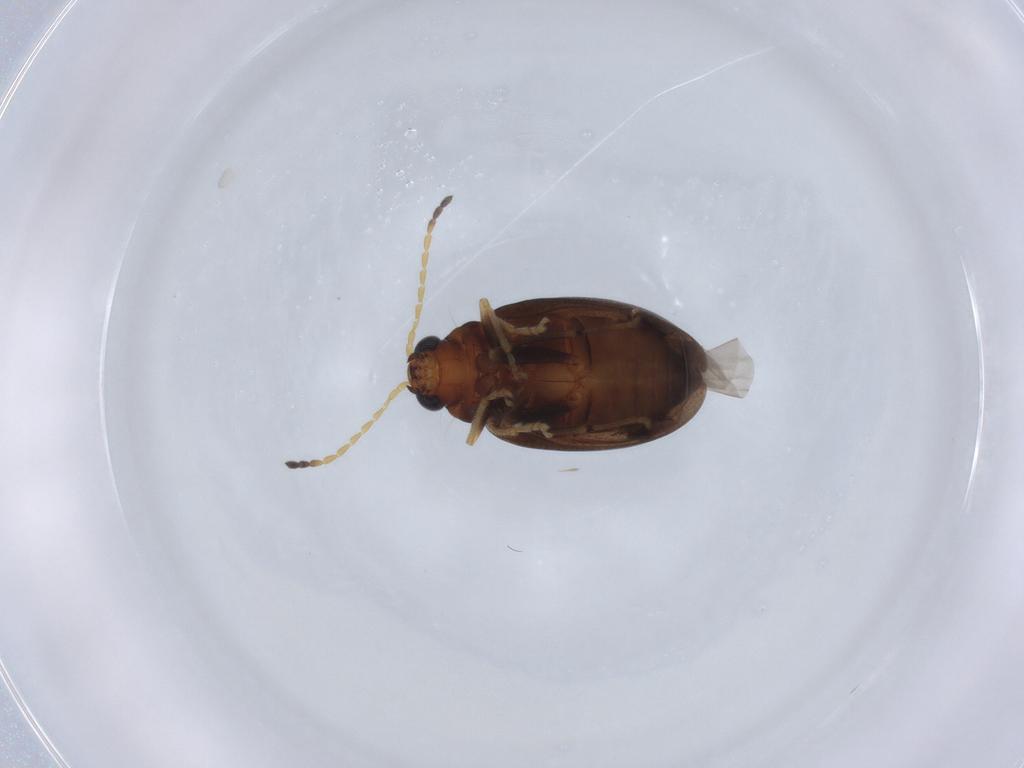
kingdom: Animalia
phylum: Arthropoda
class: Insecta
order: Coleoptera
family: Chrysomelidae
